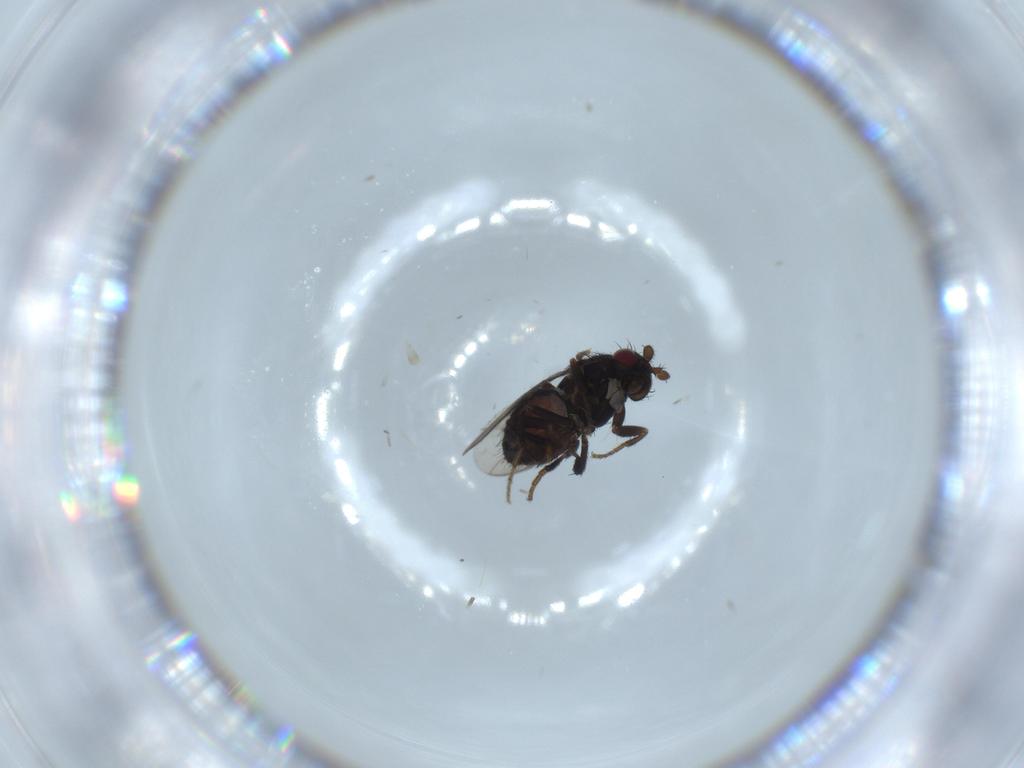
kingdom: Animalia
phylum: Arthropoda
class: Insecta
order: Diptera
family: Sphaeroceridae
